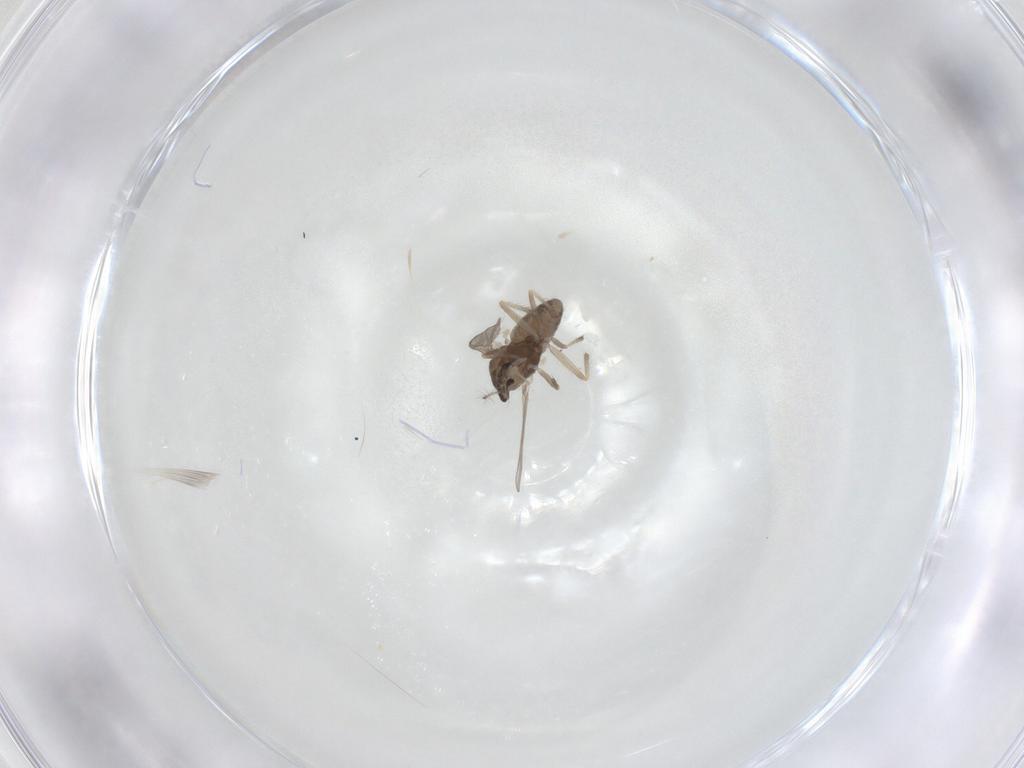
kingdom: Animalia
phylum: Arthropoda
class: Insecta
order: Diptera
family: Chironomidae
